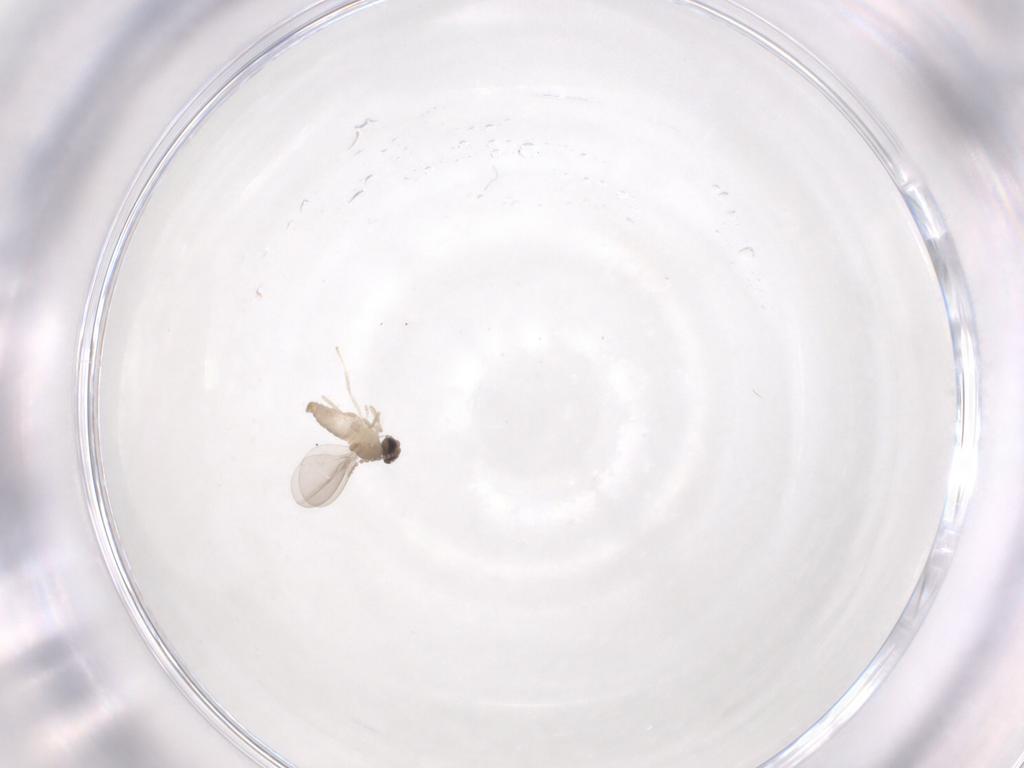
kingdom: Animalia
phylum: Arthropoda
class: Insecta
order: Diptera
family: Cecidomyiidae
